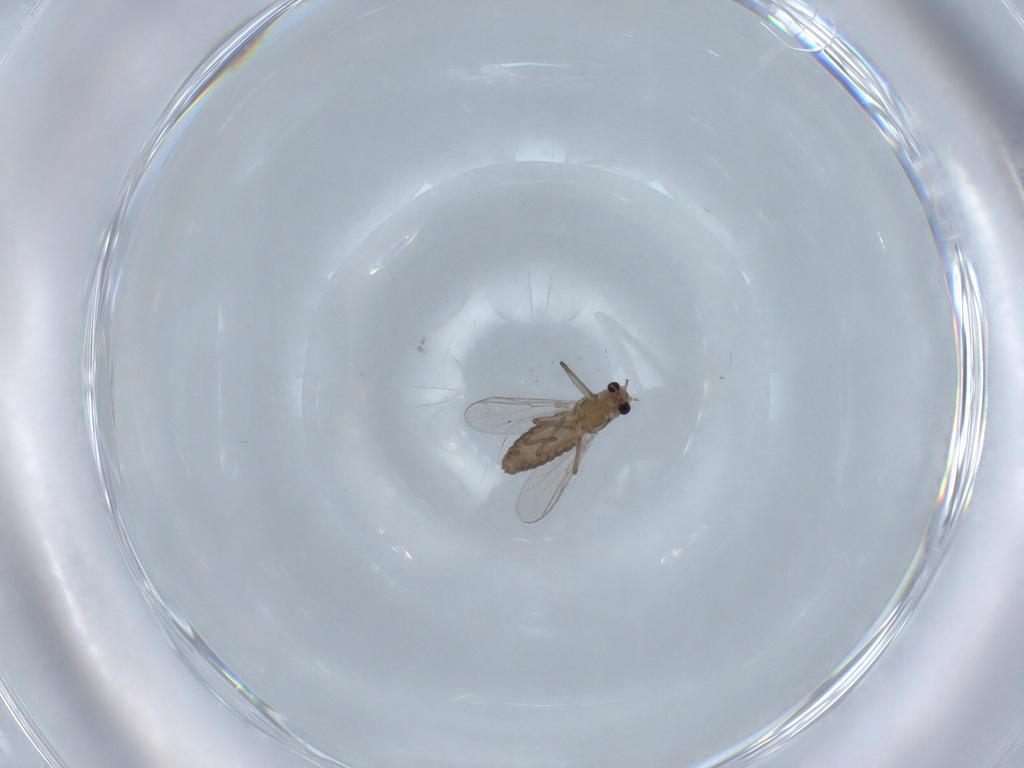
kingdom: Animalia
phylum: Arthropoda
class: Insecta
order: Diptera
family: Chironomidae
